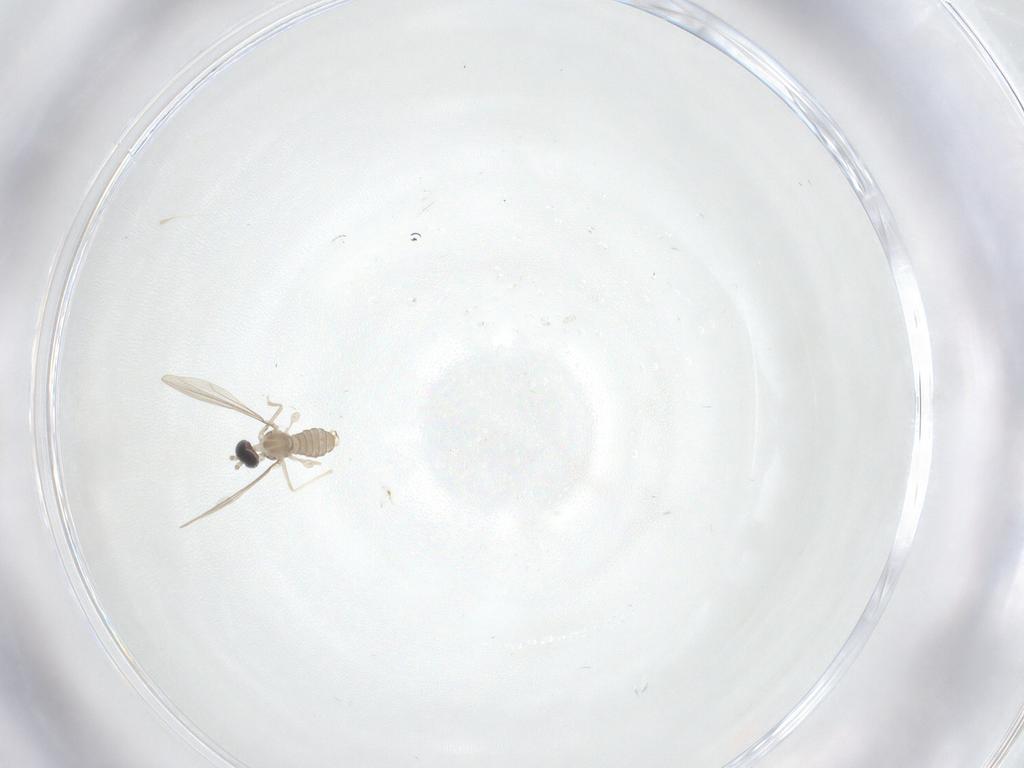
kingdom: Animalia
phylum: Arthropoda
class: Insecta
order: Diptera
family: Cecidomyiidae
